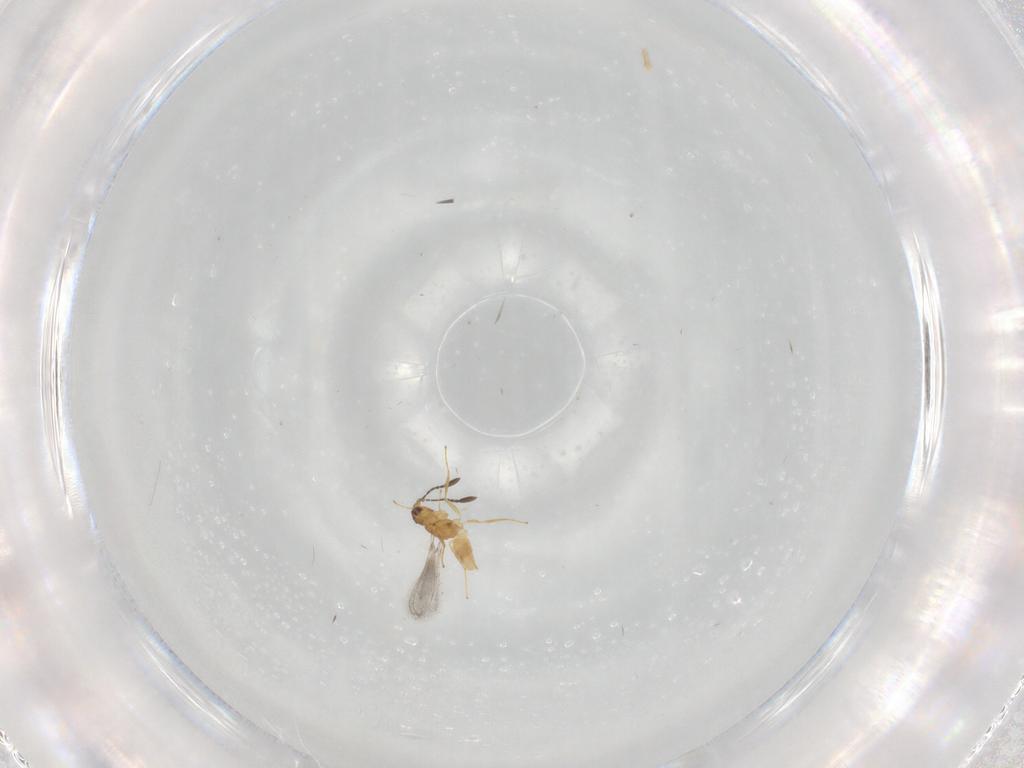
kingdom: Animalia
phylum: Arthropoda
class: Insecta
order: Hymenoptera
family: Mymaridae
